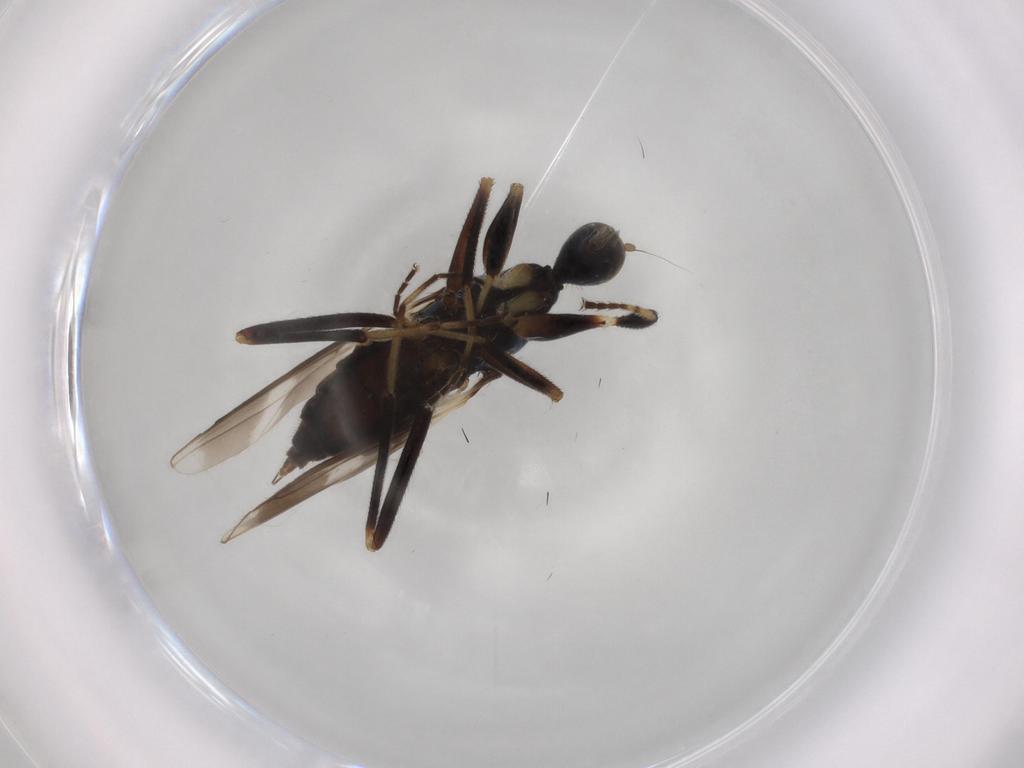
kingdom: Animalia
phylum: Arthropoda
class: Insecta
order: Diptera
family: Hybotidae
